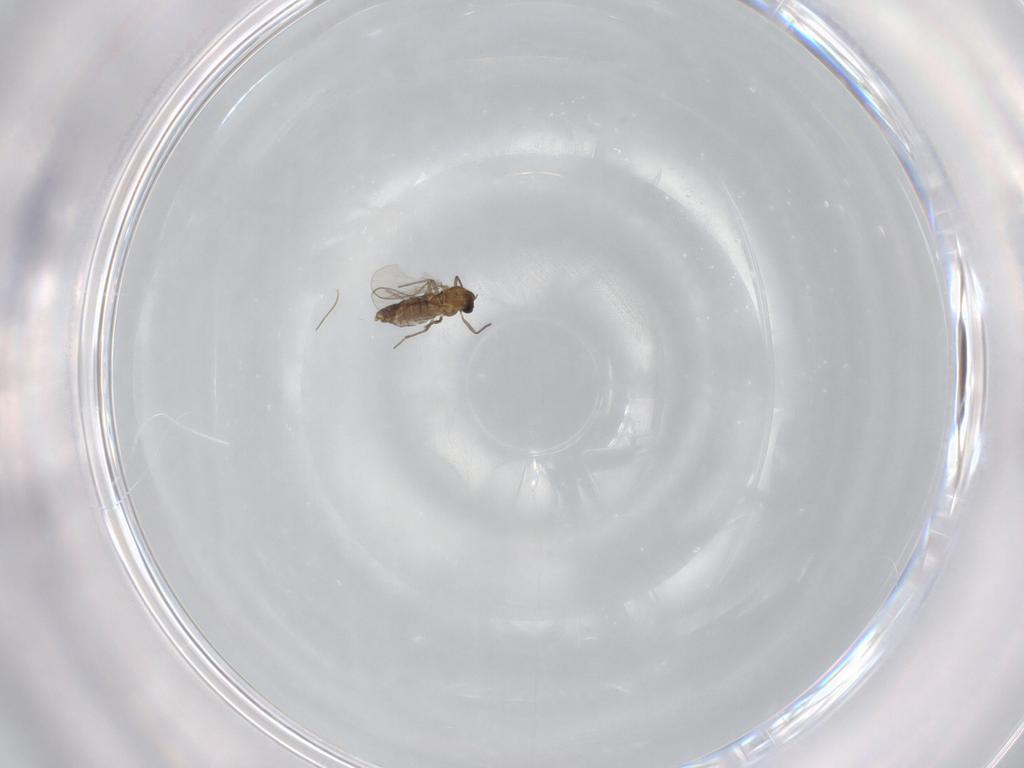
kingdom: Animalia
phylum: Arthropoda
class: Insecta
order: Diptera
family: Chironomidae
